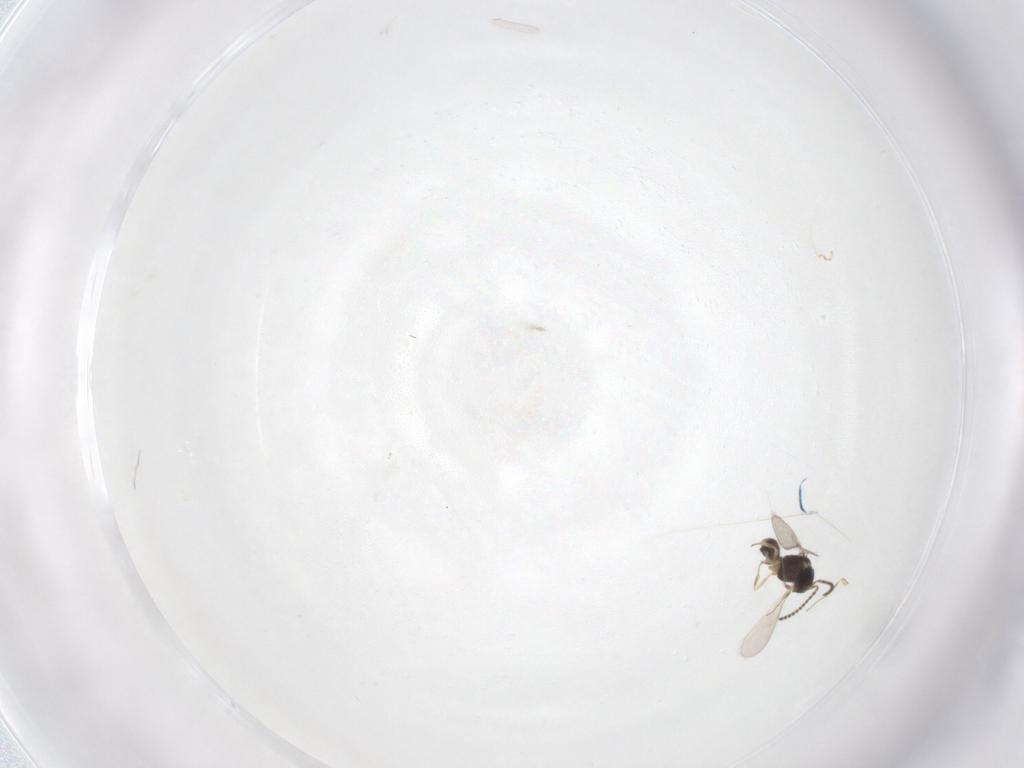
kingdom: Animalia
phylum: Arthropoda
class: Insecta
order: Hymenoptera
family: Scelionidae
